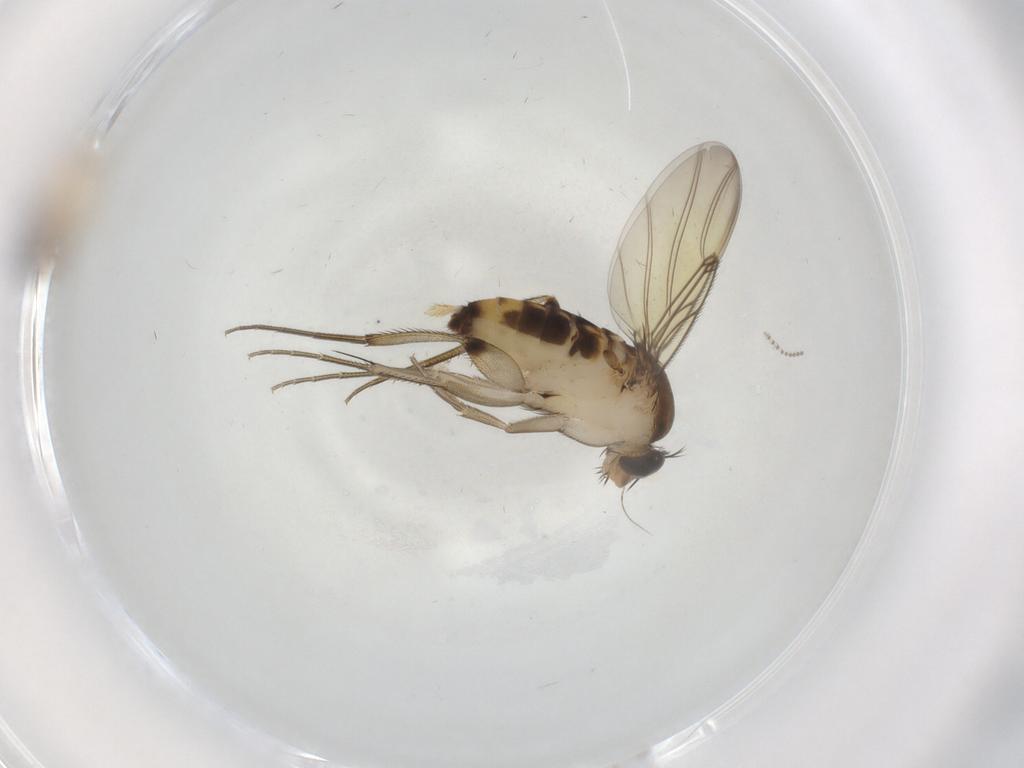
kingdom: Animalia
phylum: Arthropoda
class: Insecta
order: Diptera
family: Cecidomyiidae
